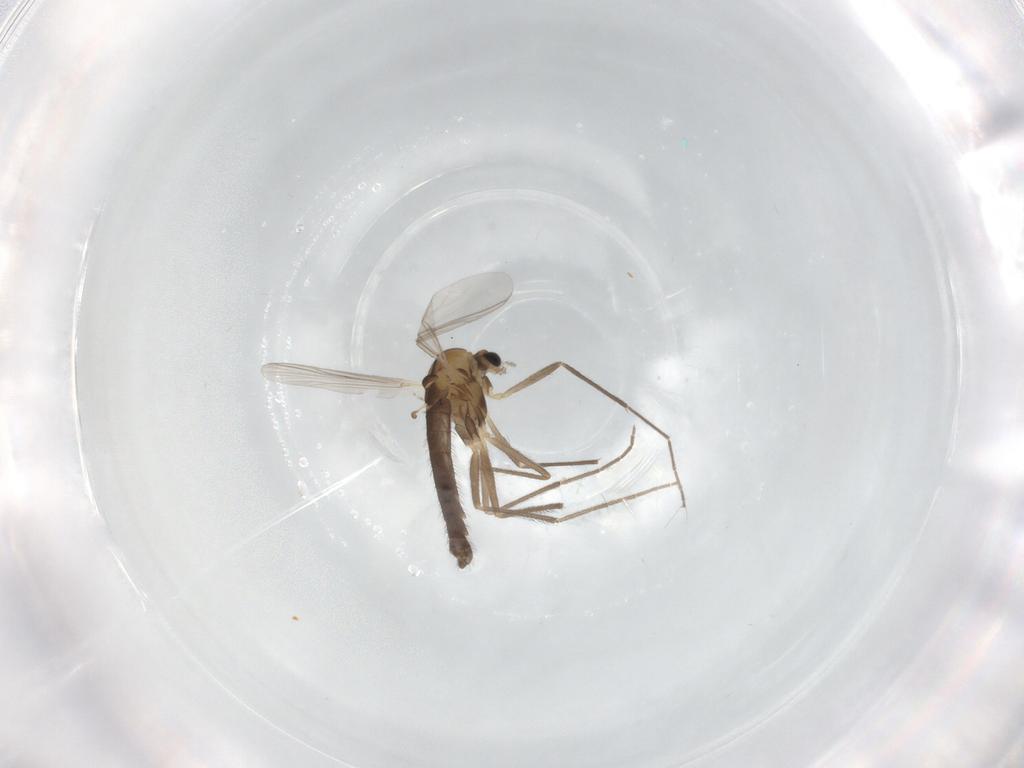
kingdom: Animalia
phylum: Arthropoda
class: Insecta
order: Diptera
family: Chironomidae
